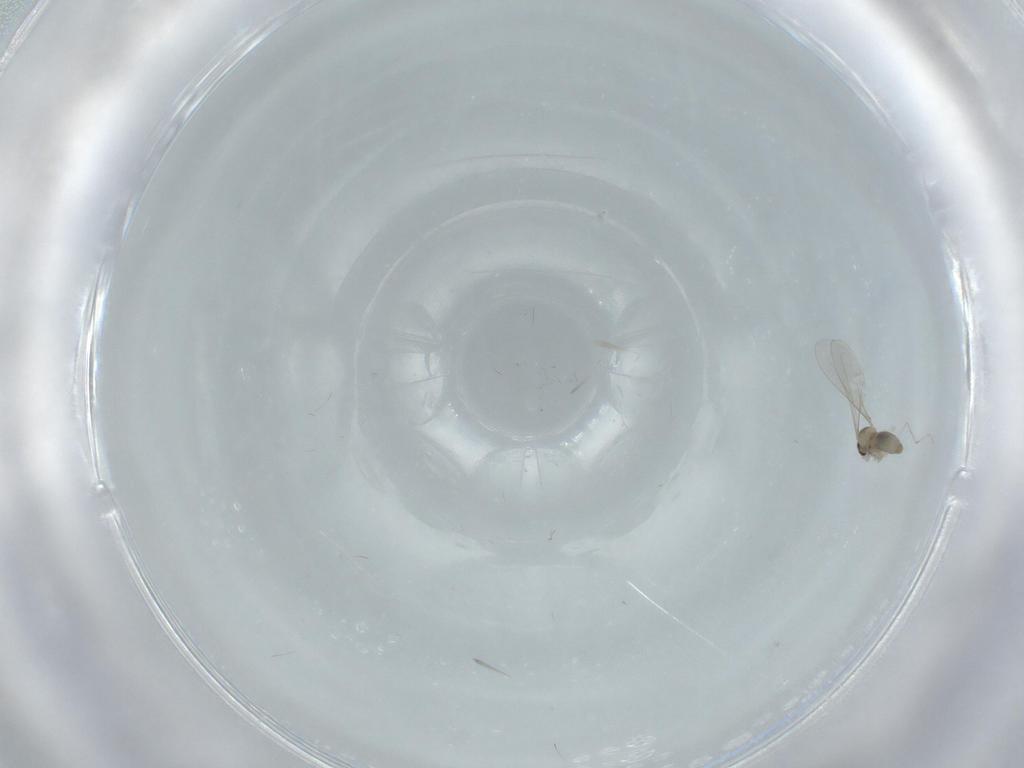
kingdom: Animalia
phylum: Arthropoda
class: Insecta
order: Diptera
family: Cecidomyiidae
